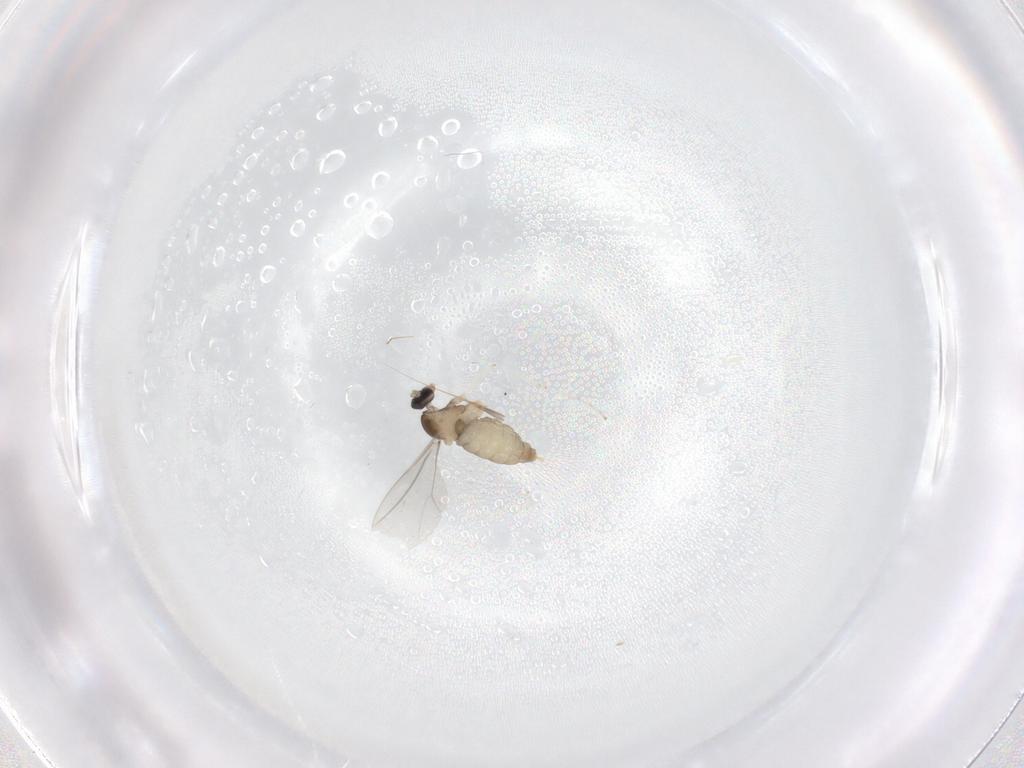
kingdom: Animalia
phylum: Arthropoda
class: Insecta
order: Diptera
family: Cecidomyiidae
